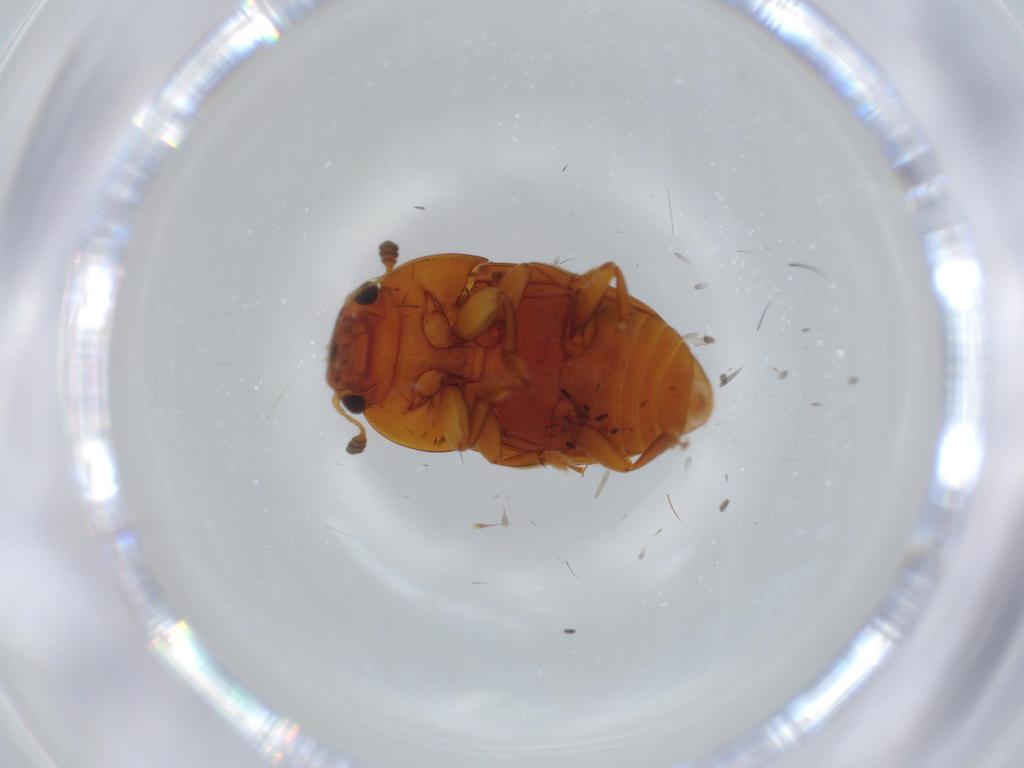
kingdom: Animalia
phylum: Arthropoda
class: Insecta
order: Coleoptera
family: Nitidulidae
